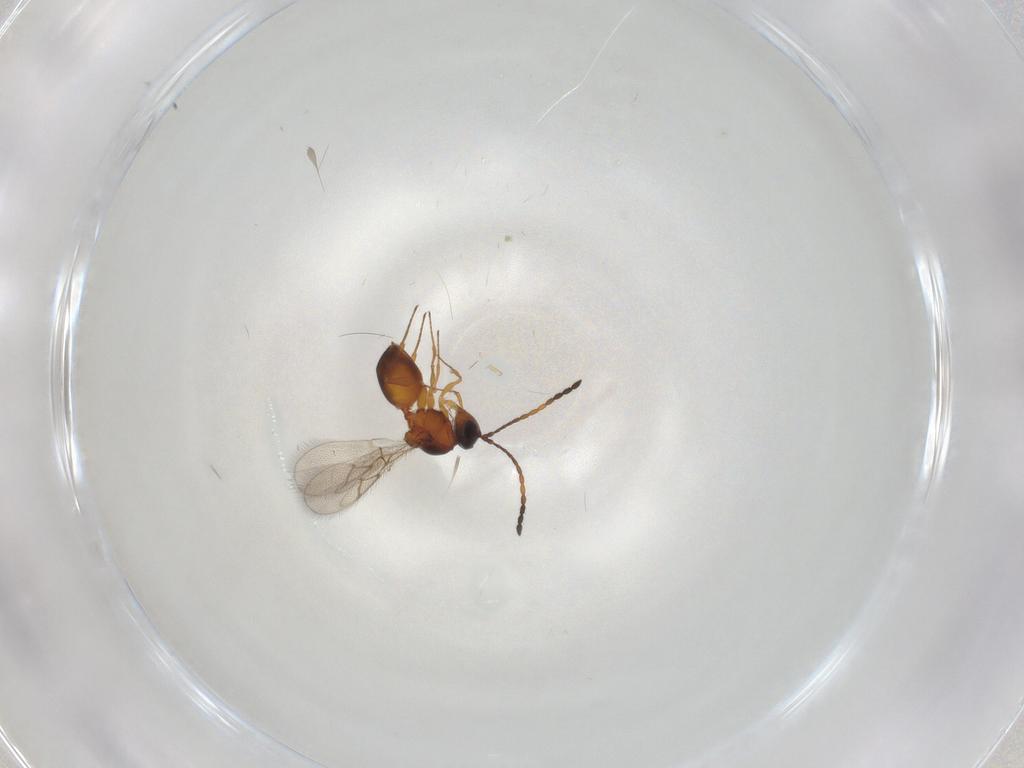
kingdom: Animalia
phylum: Arthropoda
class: Insecta
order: Hymenoptera
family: Figitidae
